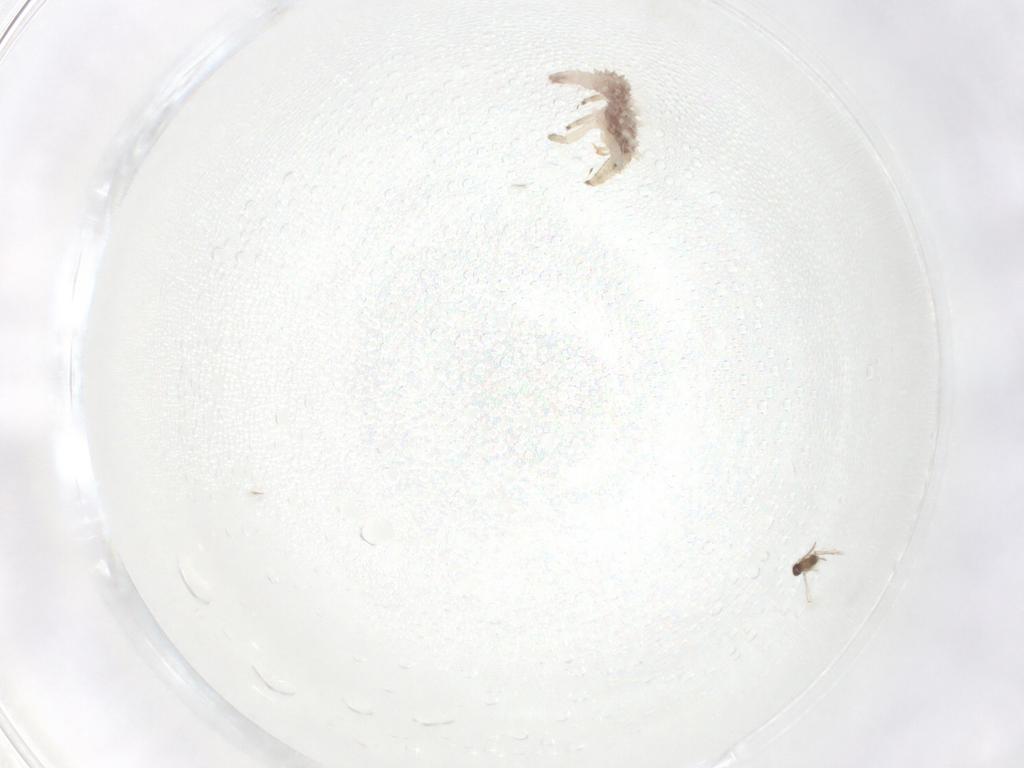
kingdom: Animalia
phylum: Arthropoda
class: Insecta
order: Neuroptera
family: Chrysopidae
